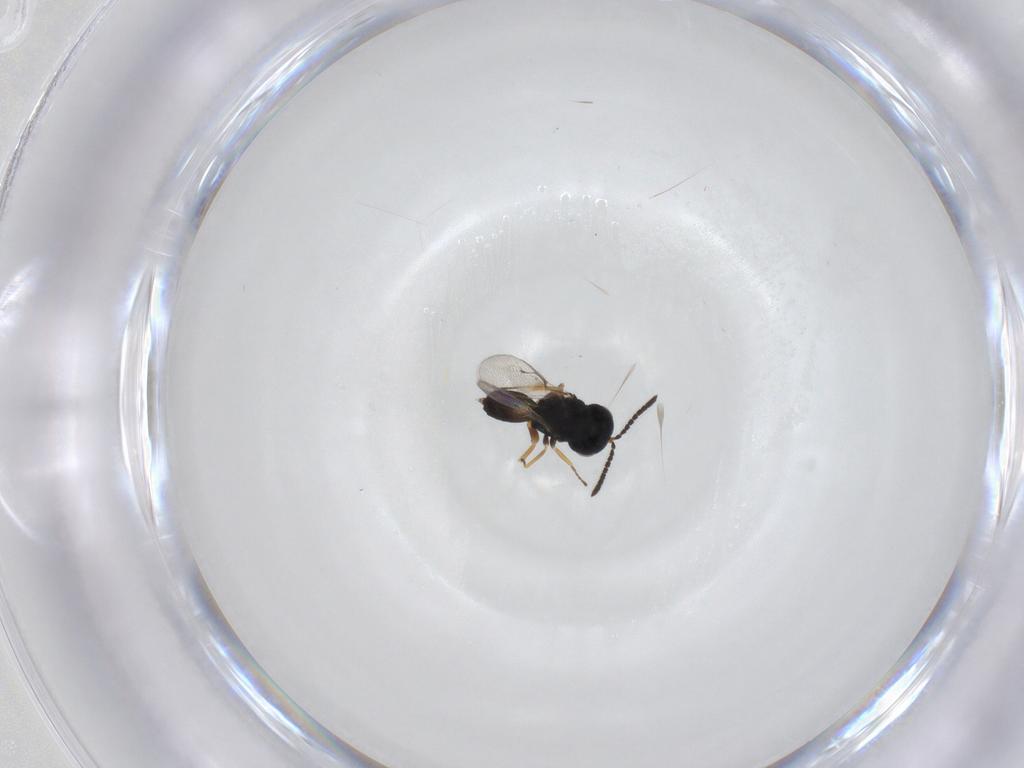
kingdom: Animalia
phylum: Arthropoda
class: Insecta
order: Hymenoptera
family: Pteromalidae
